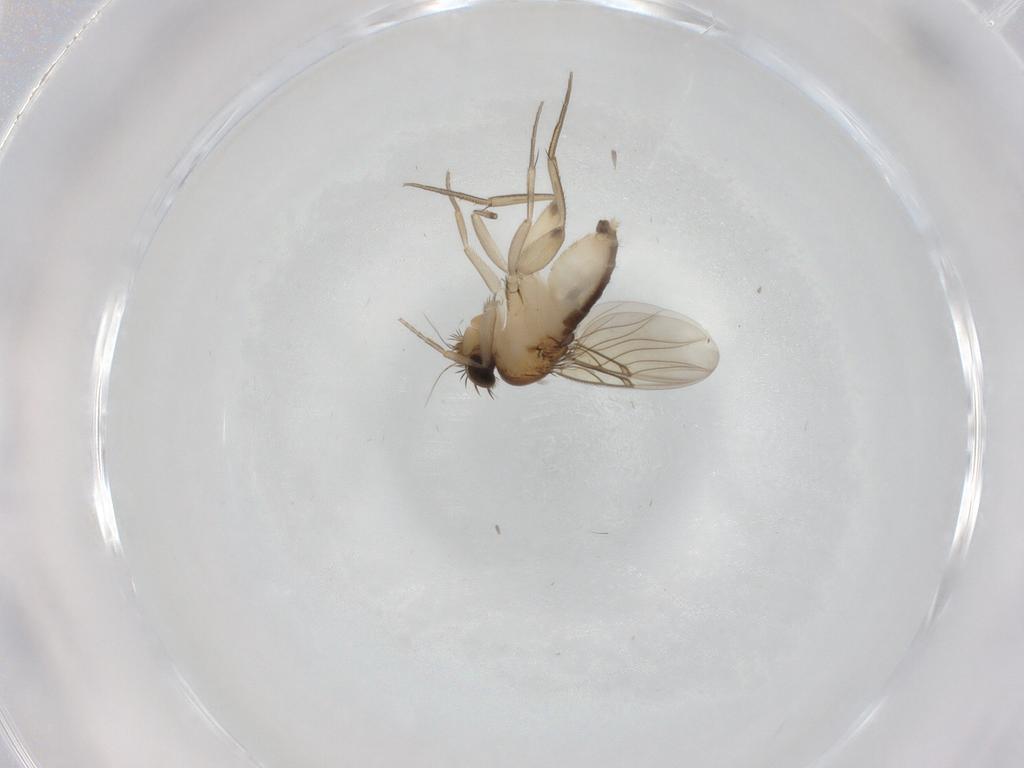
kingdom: Animalia
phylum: Arthropoda
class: Insecta
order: Diptera
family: Phoridae
